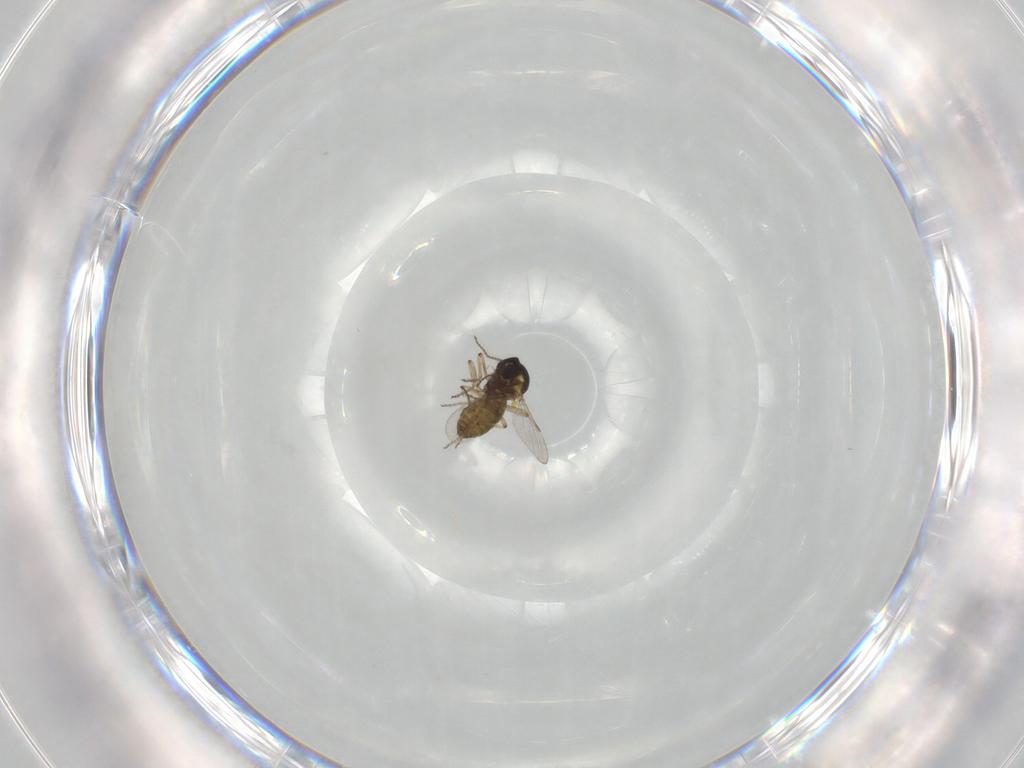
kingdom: Animalia
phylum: Arthropoda
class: Insecta
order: Diptera
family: Ceratopogonidae
